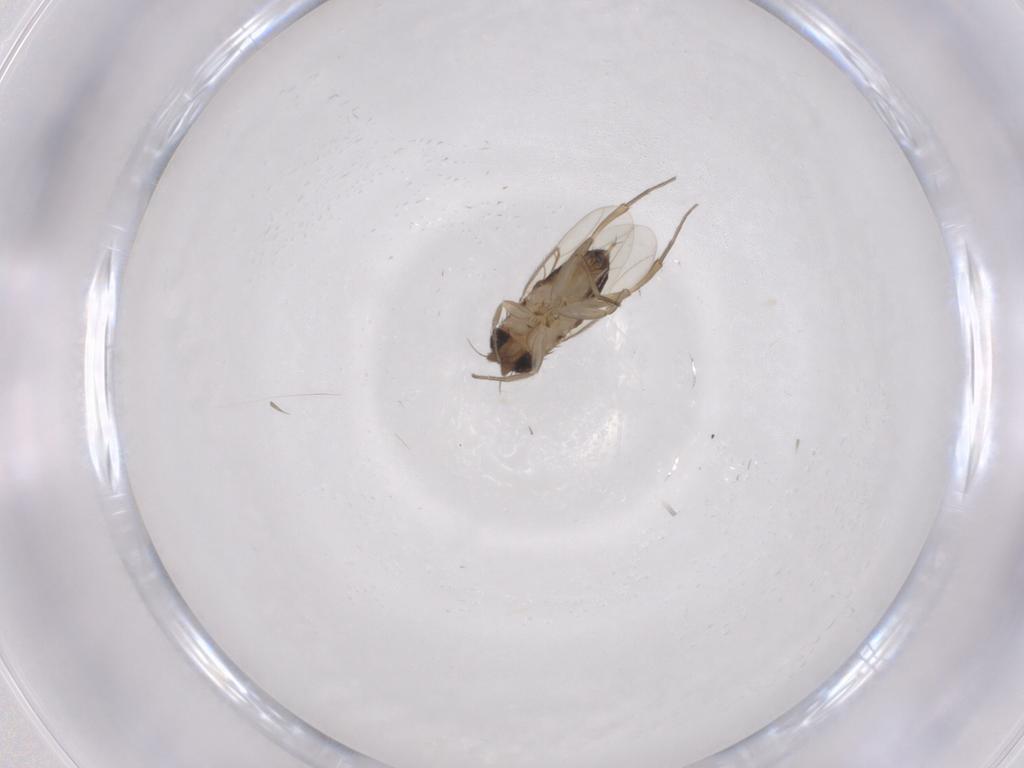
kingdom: Animalia
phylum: Arthropoda
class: Insecta
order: Diptera
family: Phoridae
